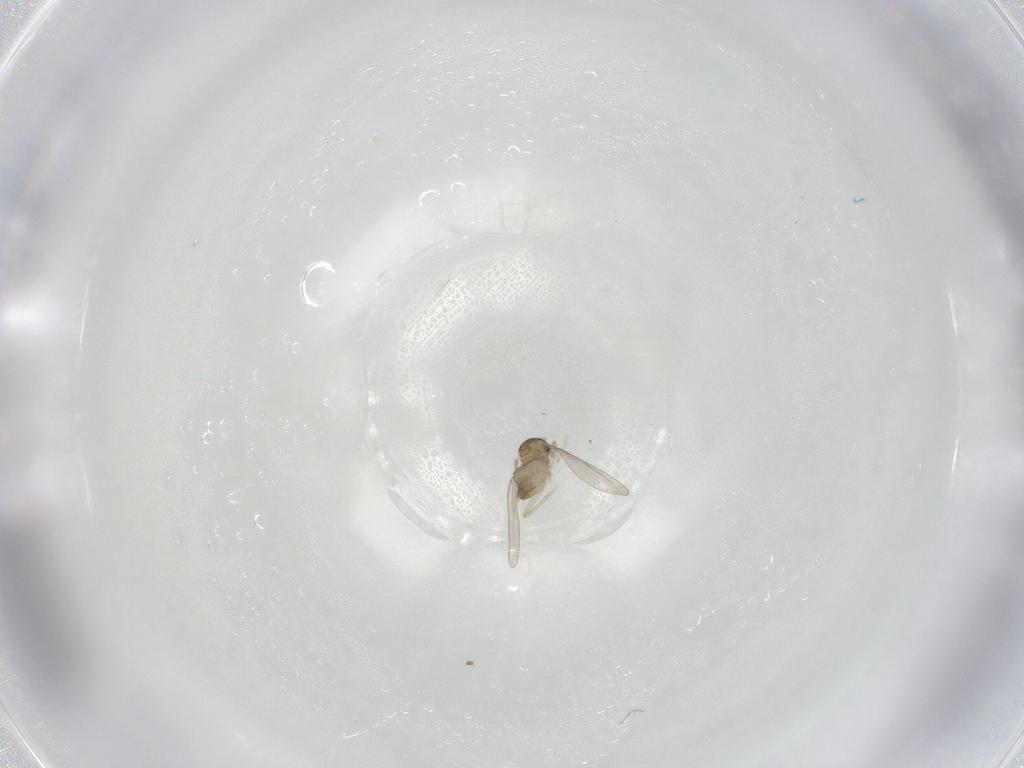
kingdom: Animalia
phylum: Arthropoda
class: Insecta
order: Diptera
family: Cecidomyiidae
